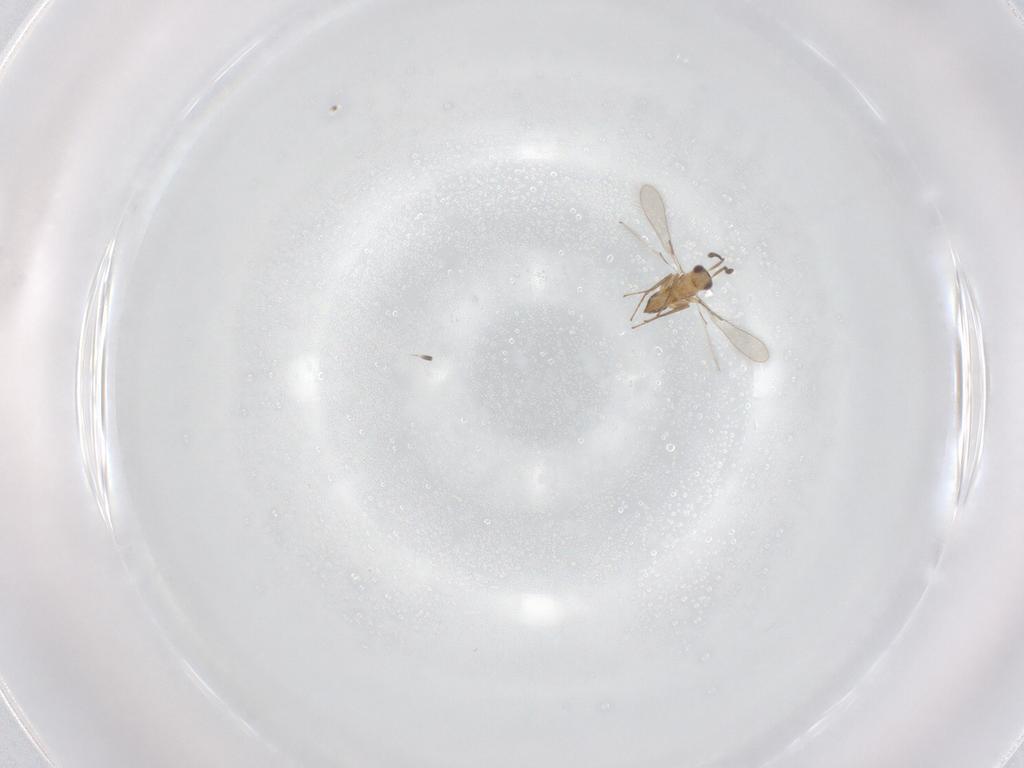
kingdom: Animalia
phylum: Arthropoda
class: Insecta
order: Hymenoptera
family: Mymaridae
